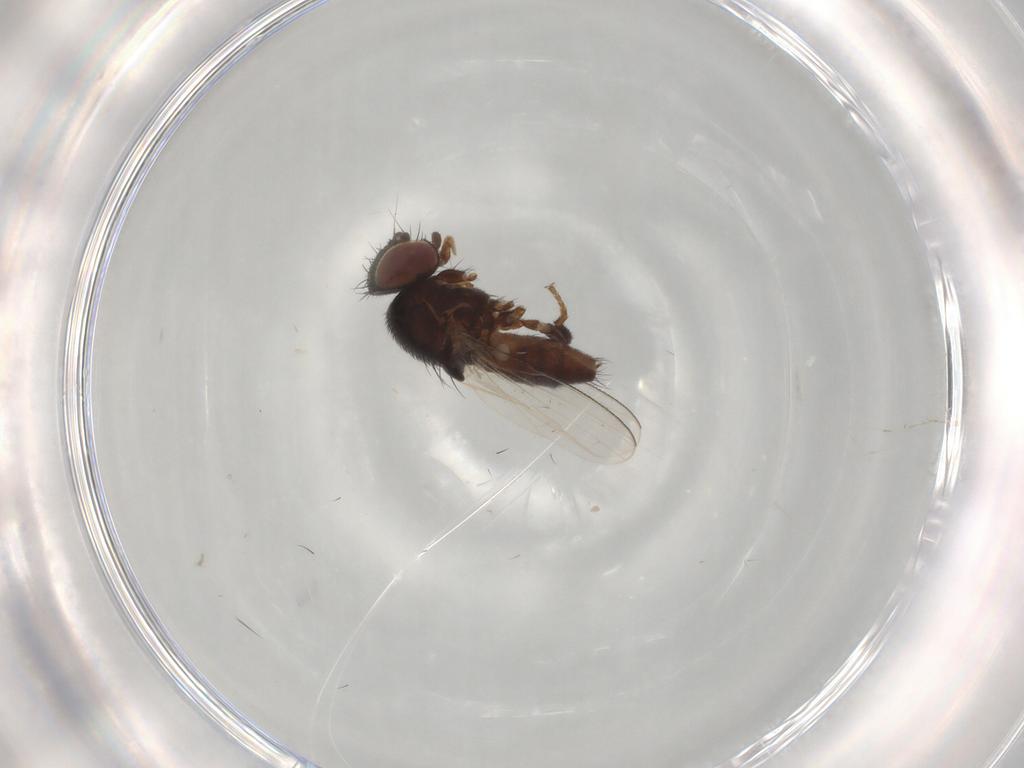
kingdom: Animalia
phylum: Arthropoda
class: Insecta
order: Diptera
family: Milichiidae
